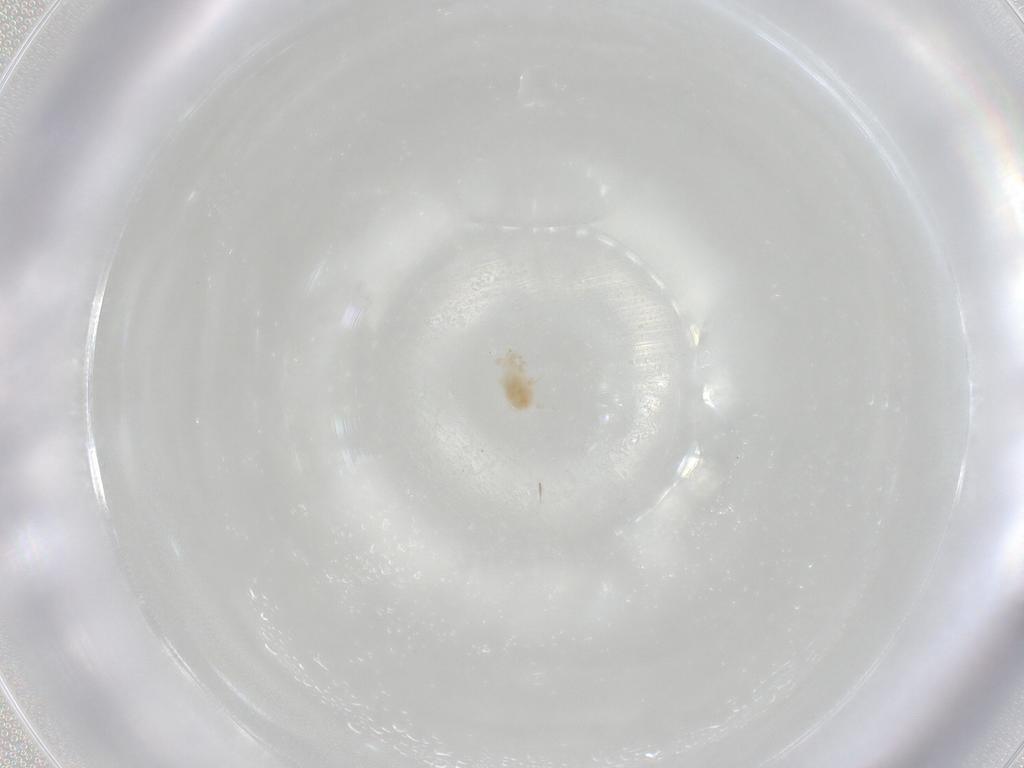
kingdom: Animalia
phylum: Arthropoda
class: Arachnida
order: Mesostigmata
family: Phytoseiidae
